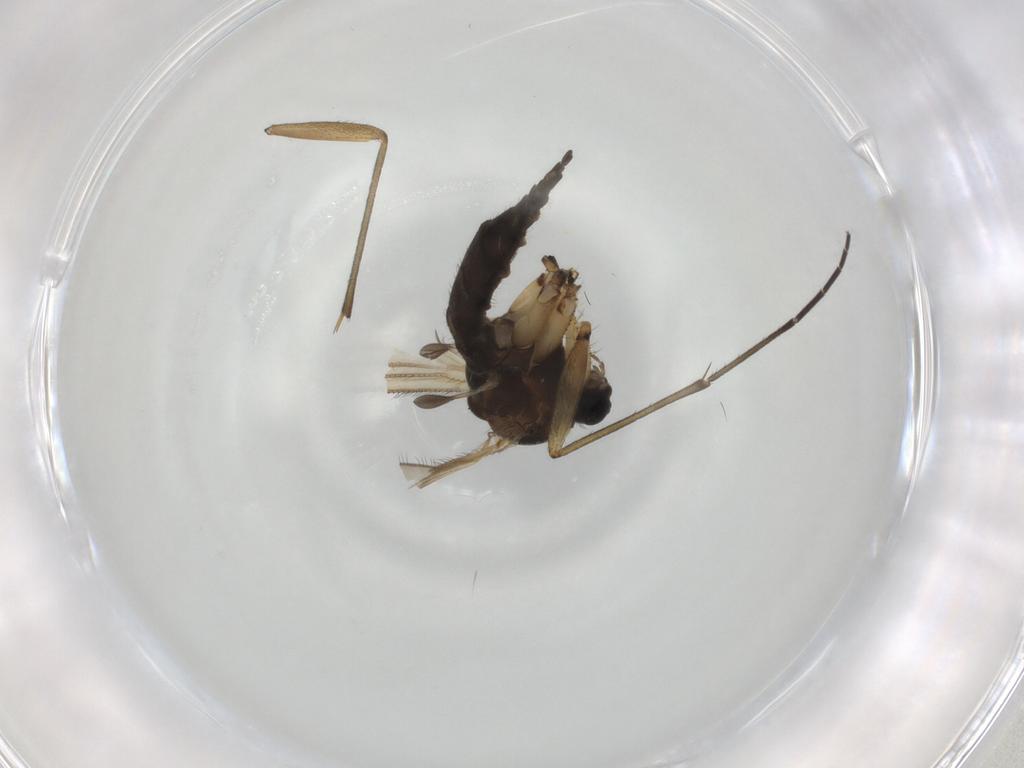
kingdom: Animalia
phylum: Arthropoda
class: Insecta
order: Diptera
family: Sciaridae
